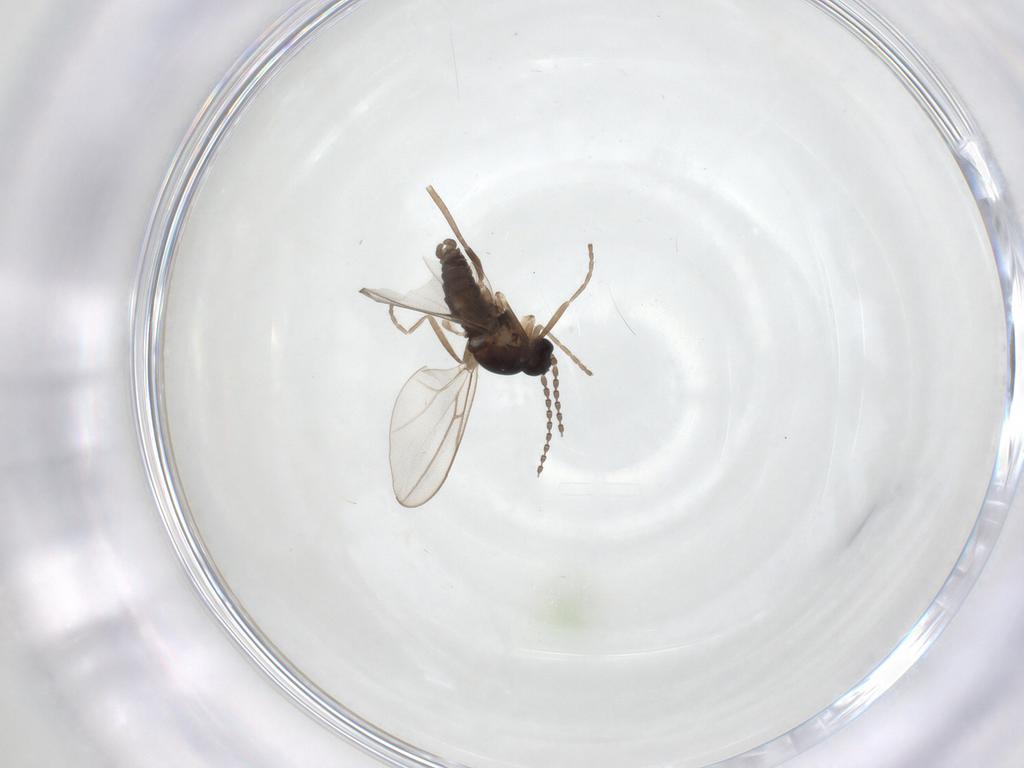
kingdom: Animalia
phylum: Arthropoda
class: Insecta
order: Diptera
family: Cecidomyiidae
